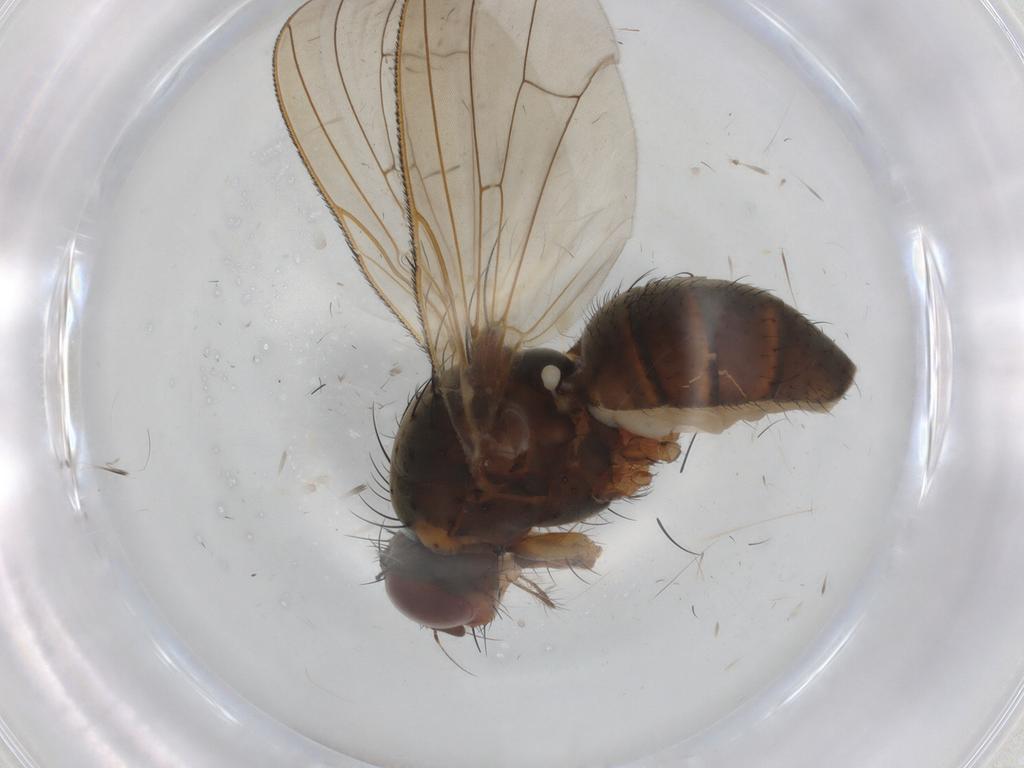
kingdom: Animalia
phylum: Arthropoda
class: Insecta
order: Diptera
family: Anthomyiidae
